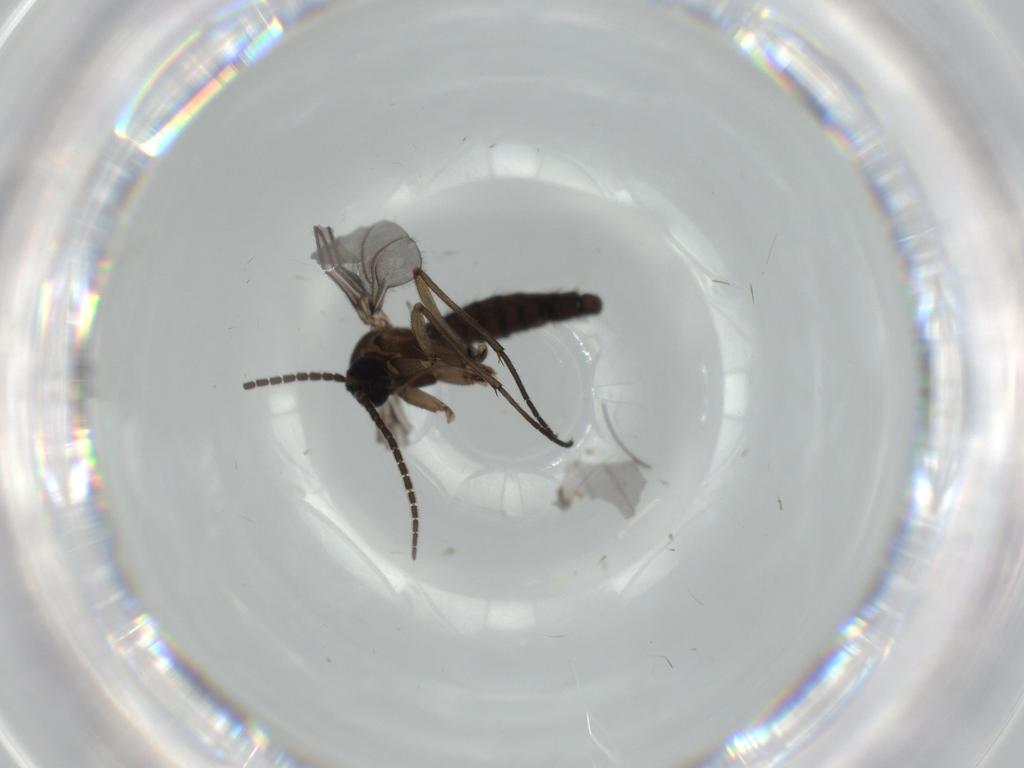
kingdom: Animalia
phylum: Arthropoda
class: Insecta
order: Diptera
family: Sciaridae
